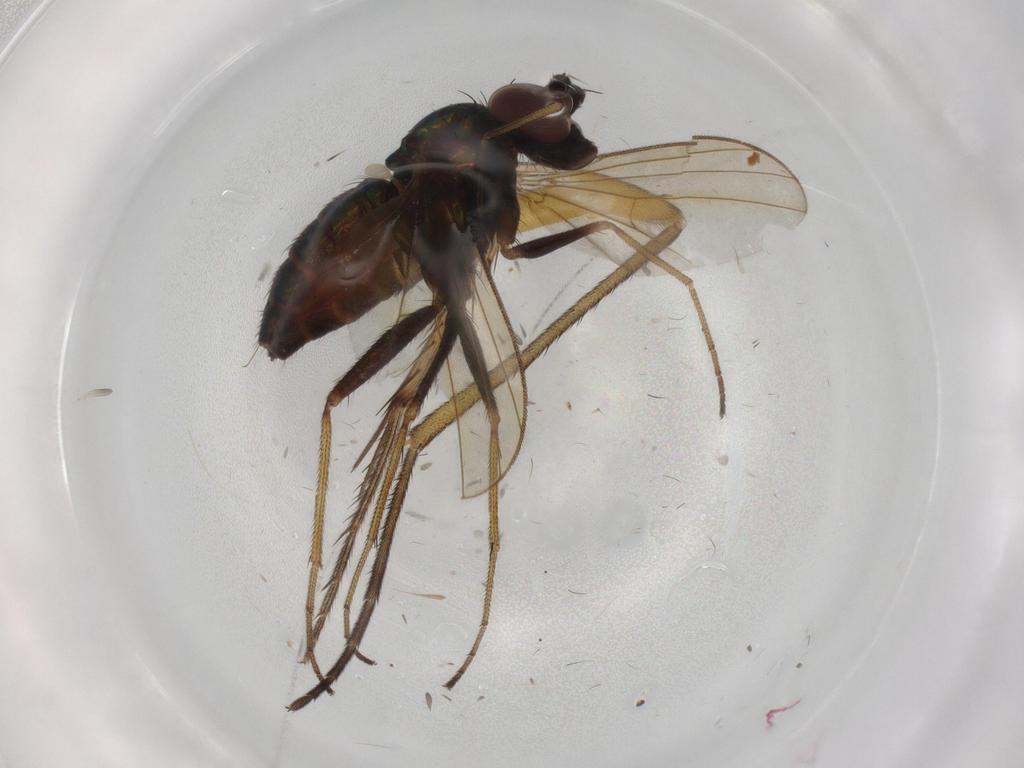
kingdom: Animalia
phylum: Arthropoda
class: Insecta
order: Diptera
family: Dolichopodidae
